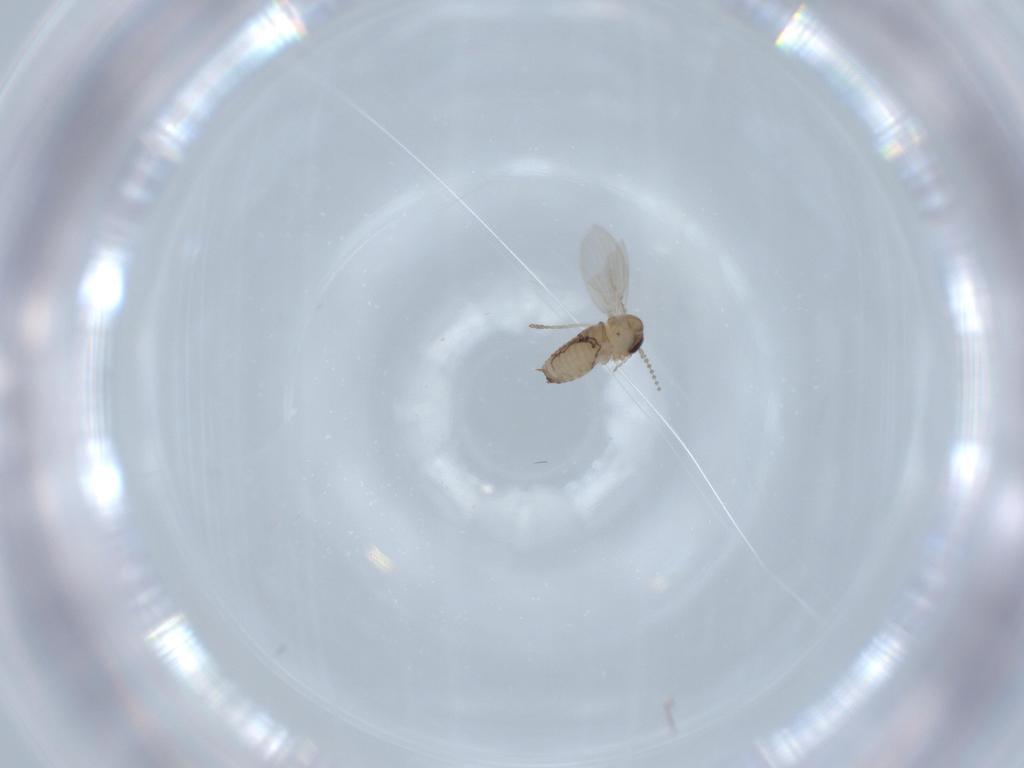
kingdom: Animalia
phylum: Arthropoda
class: Insecta
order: Diptera
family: Psychodidae
